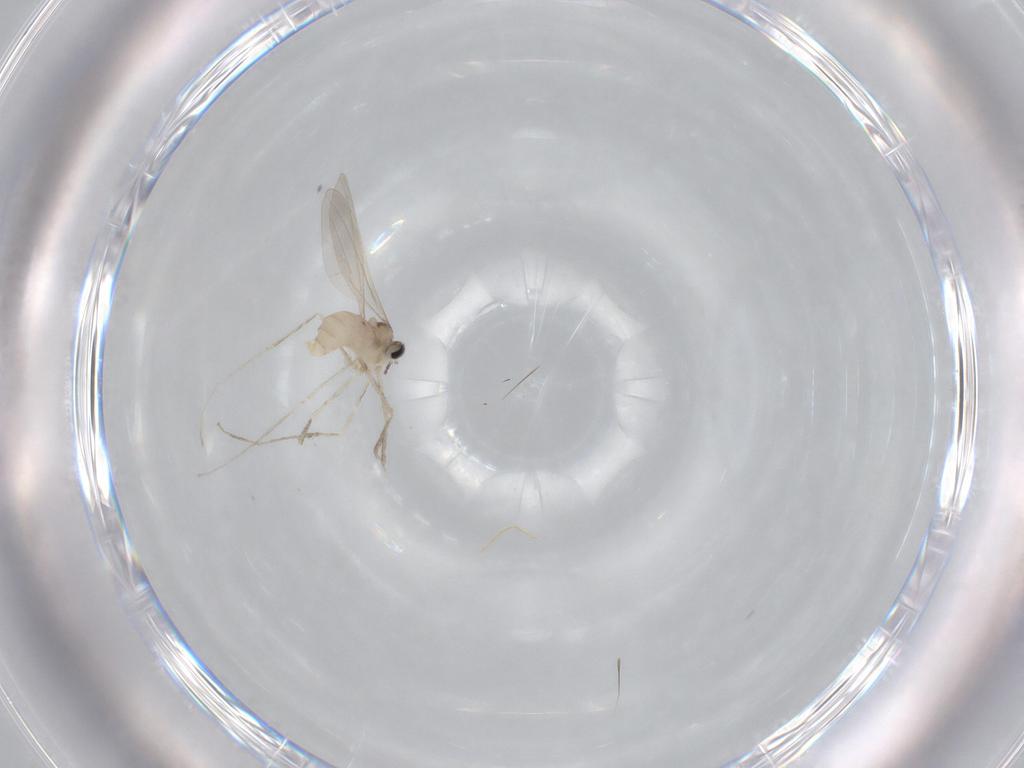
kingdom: Animalia
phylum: Arthropoda
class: Insecta
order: Diptera
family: Cecidomyiidae
